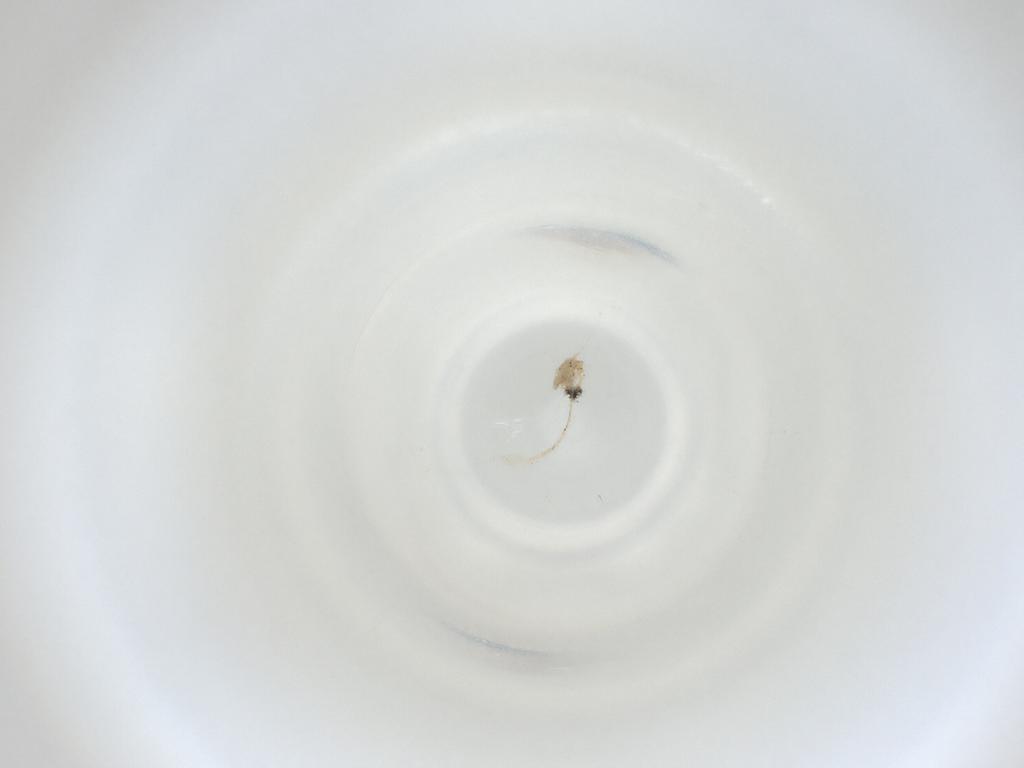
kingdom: Animalia
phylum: Arthropoda
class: Insecta
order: Diptera
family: Cecidomyiidae
